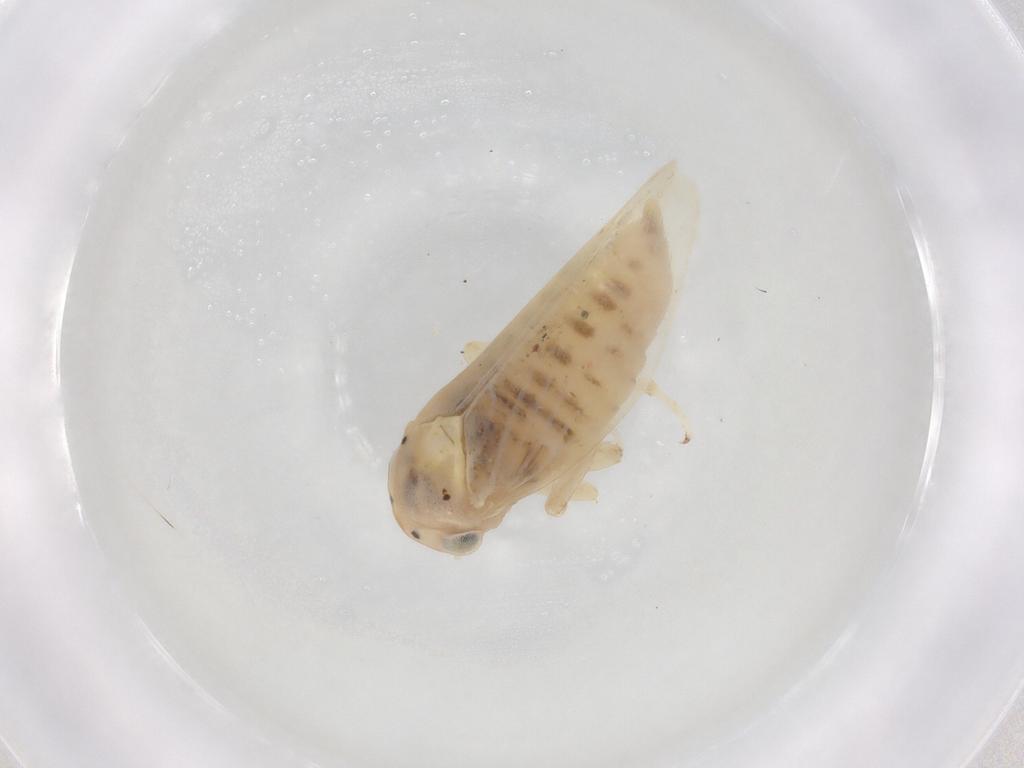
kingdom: Animalia
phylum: Arthropoda
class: Insecta
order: Hemiptera
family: Cicadellidae
